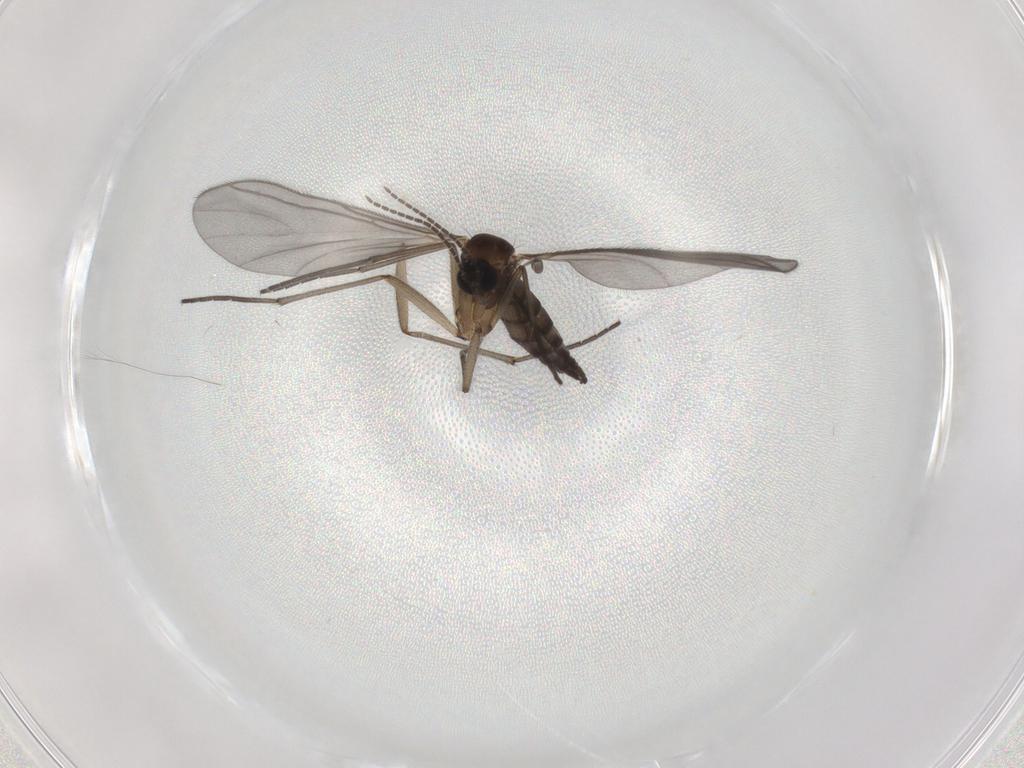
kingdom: Animalia
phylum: Arthropoda
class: Insecta
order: Diptera
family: Sciaridae
